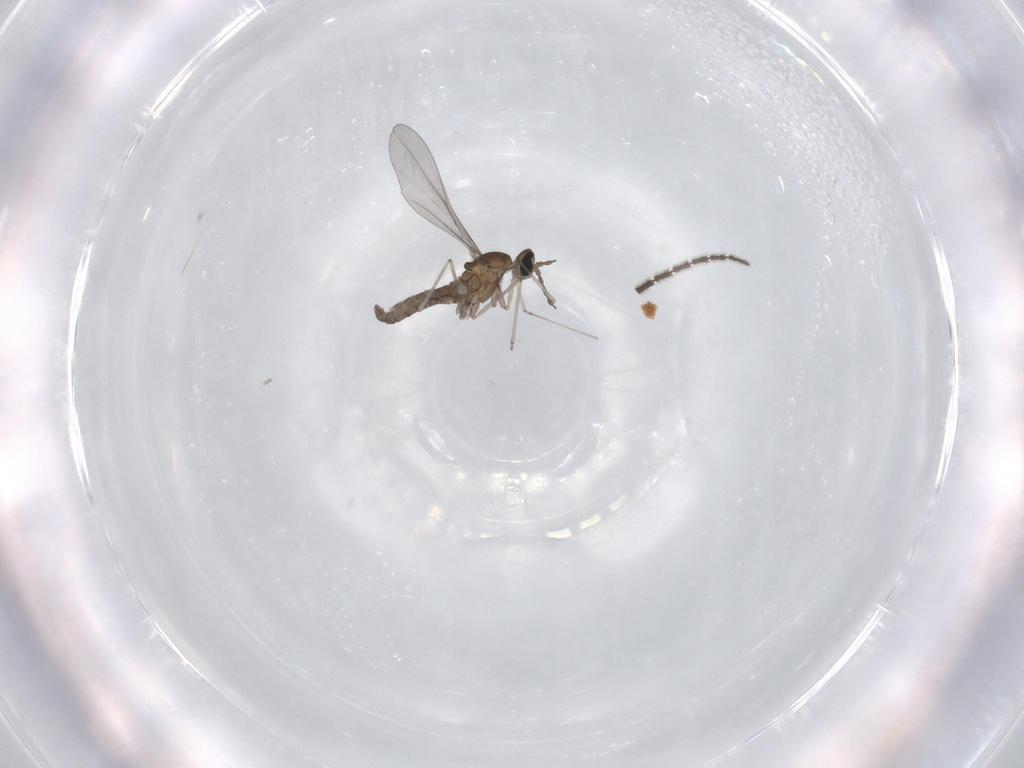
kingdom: Animalia
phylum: Arthropoda
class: Insecta
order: Diptera
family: Cecidomyiidae
